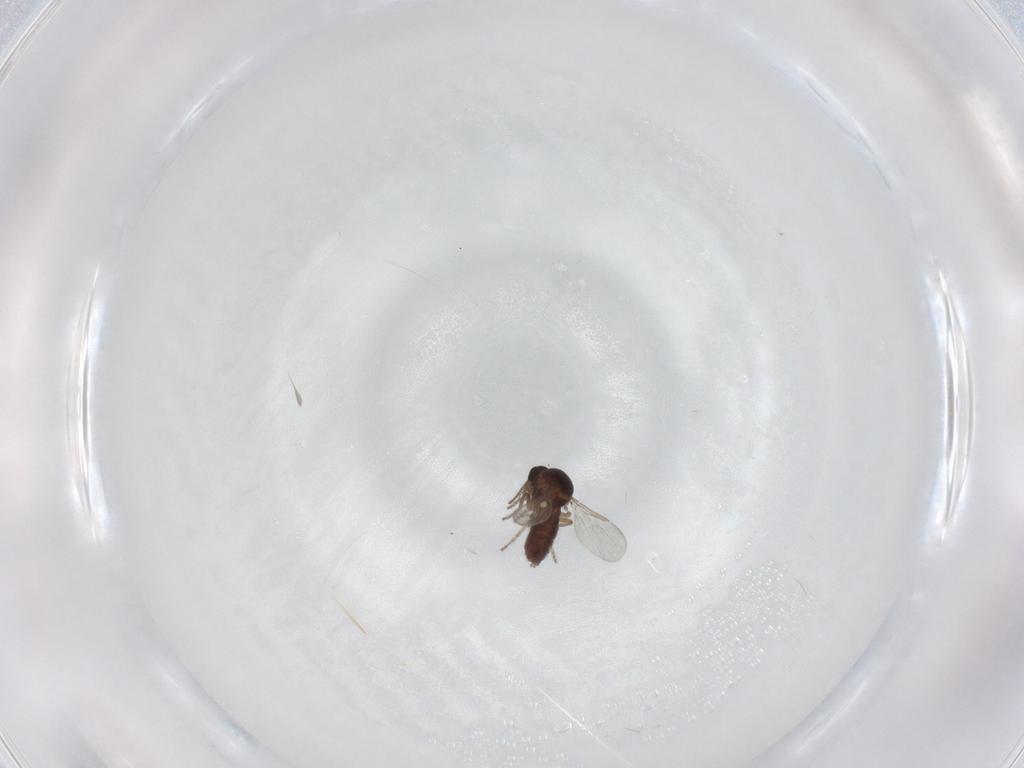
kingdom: Animalia
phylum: Arthropoda
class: Insecta
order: Diptera
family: Ceratopogonidae
